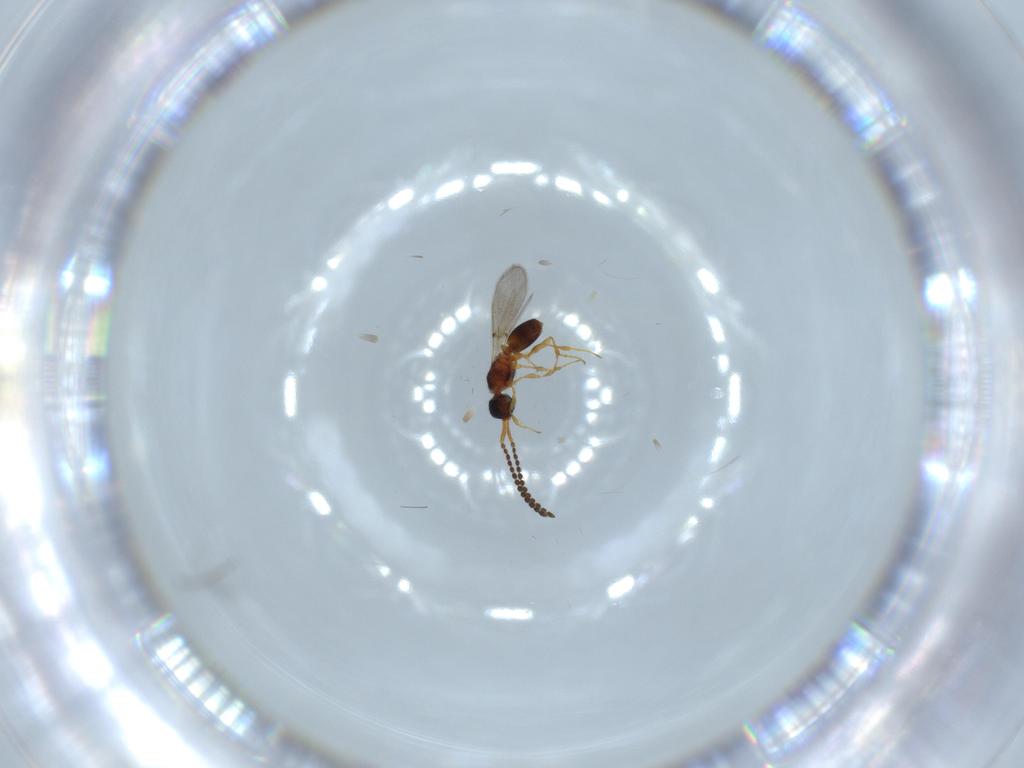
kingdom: Animalia
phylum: Arthropoda
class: Insecta
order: Hymenoptera
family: Diapriidae
